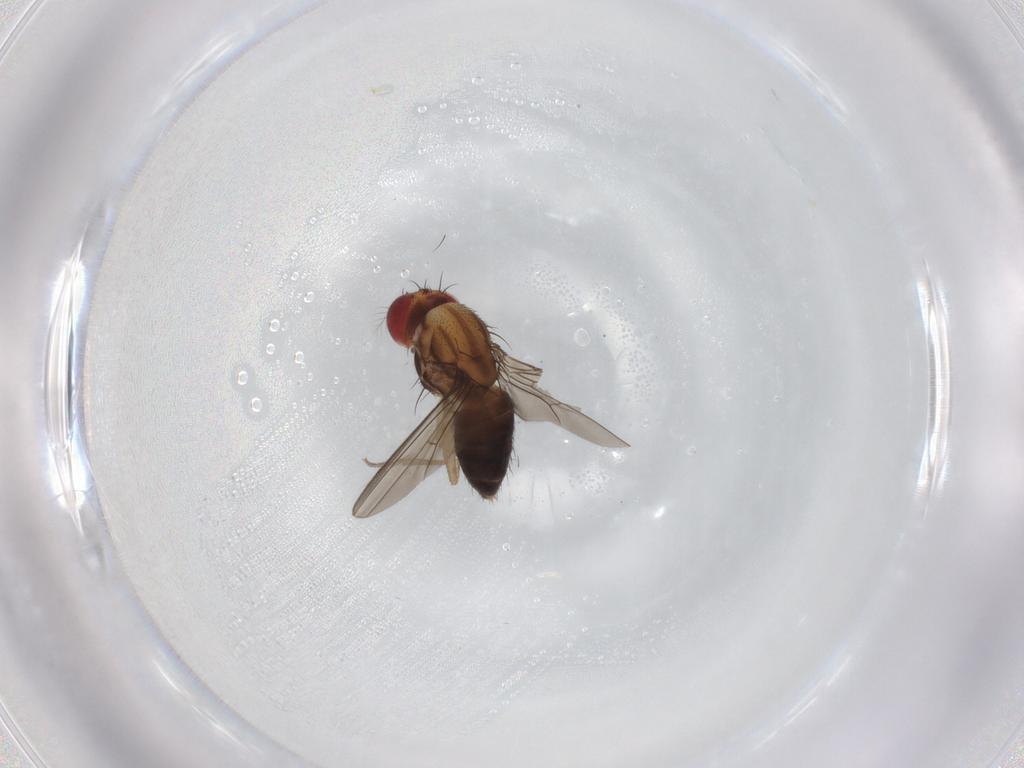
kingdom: Animalia
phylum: Arthropoda
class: Insecta
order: Diptera
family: Drosophilidae
